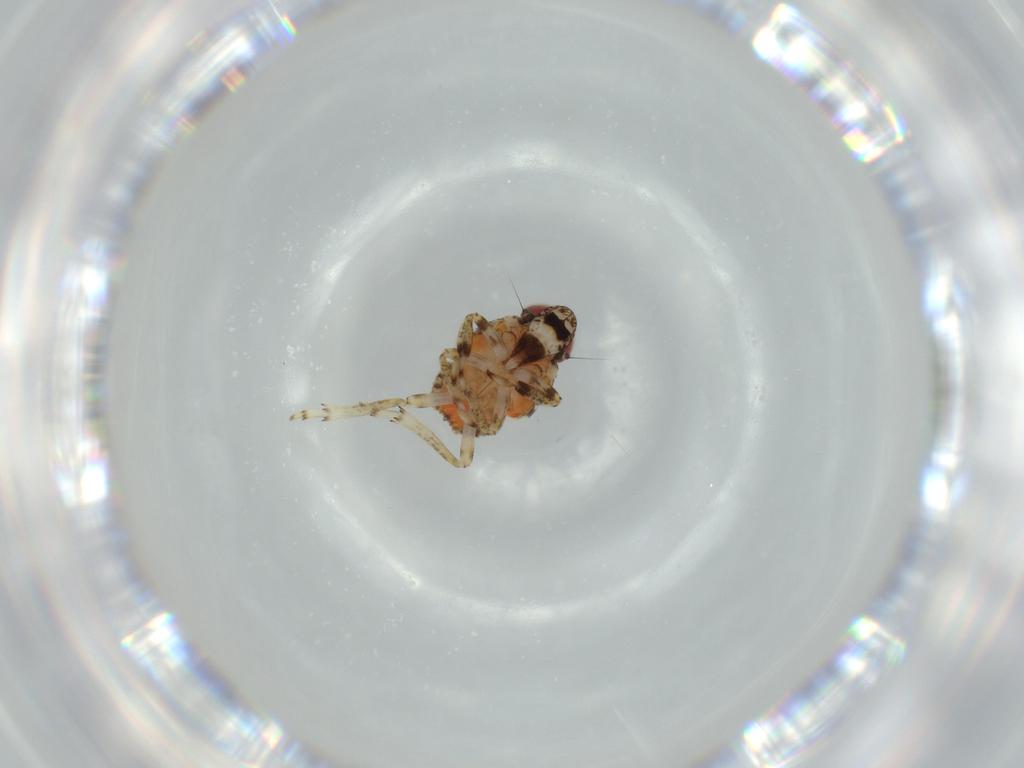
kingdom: Animalia
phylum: Arthropoda
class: Insecta
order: Hemiptera
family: Issidae
